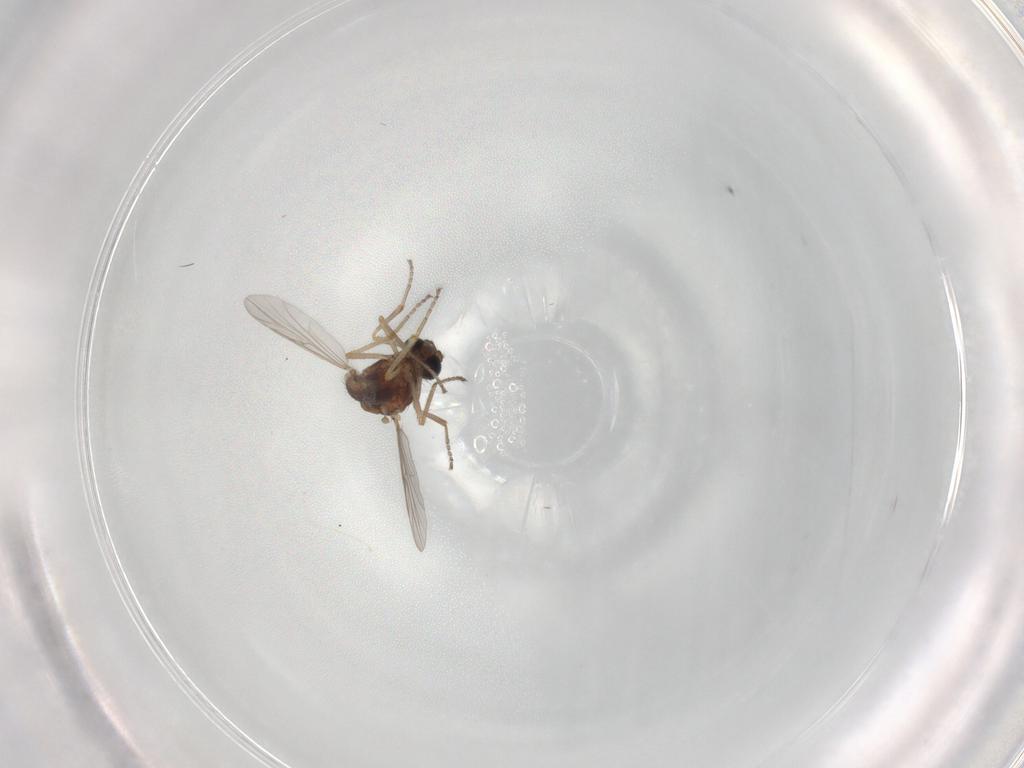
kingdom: Animalia
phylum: Arthropoda
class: Insecta
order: Diptera
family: Ceratopogonidae
